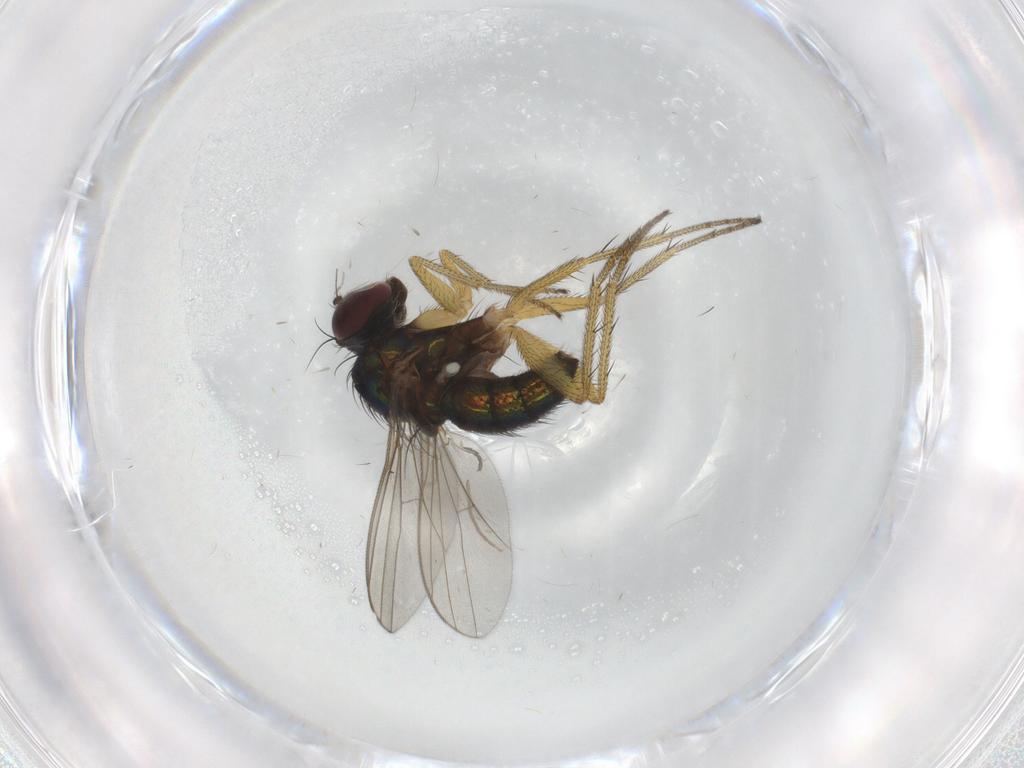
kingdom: Animalia
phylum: Arthropoda
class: Insecta
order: Diptera
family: Chironomidae
